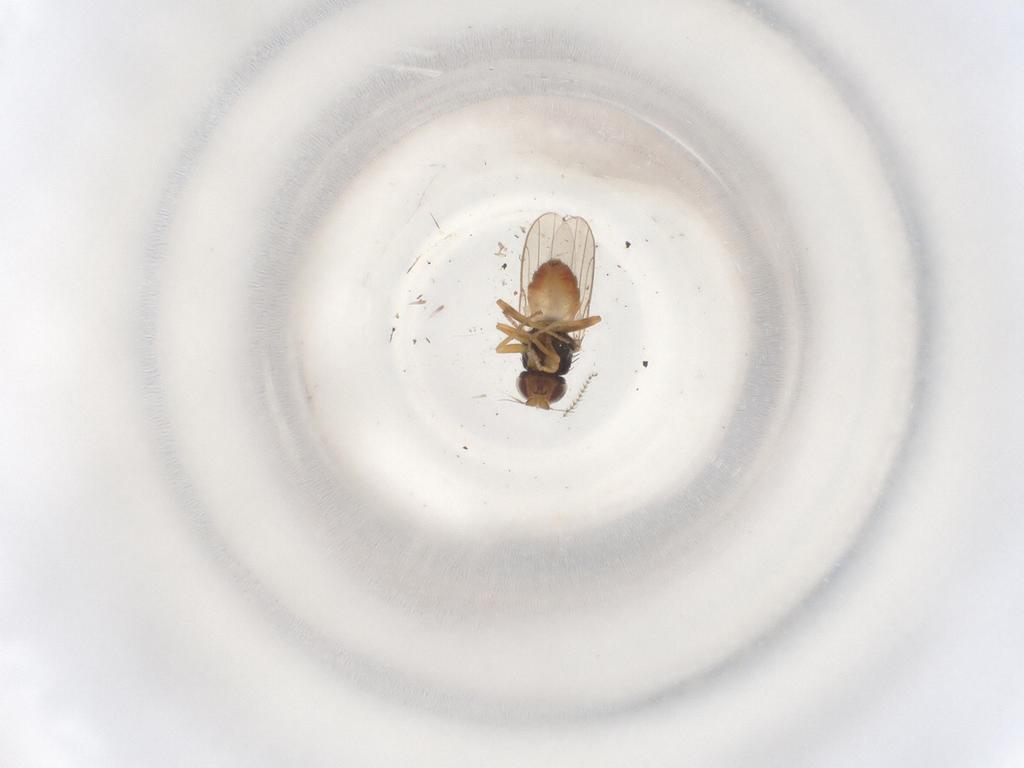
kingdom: Animalia
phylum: Arthropoda
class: Insecta
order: Diptera
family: Chloropidae
